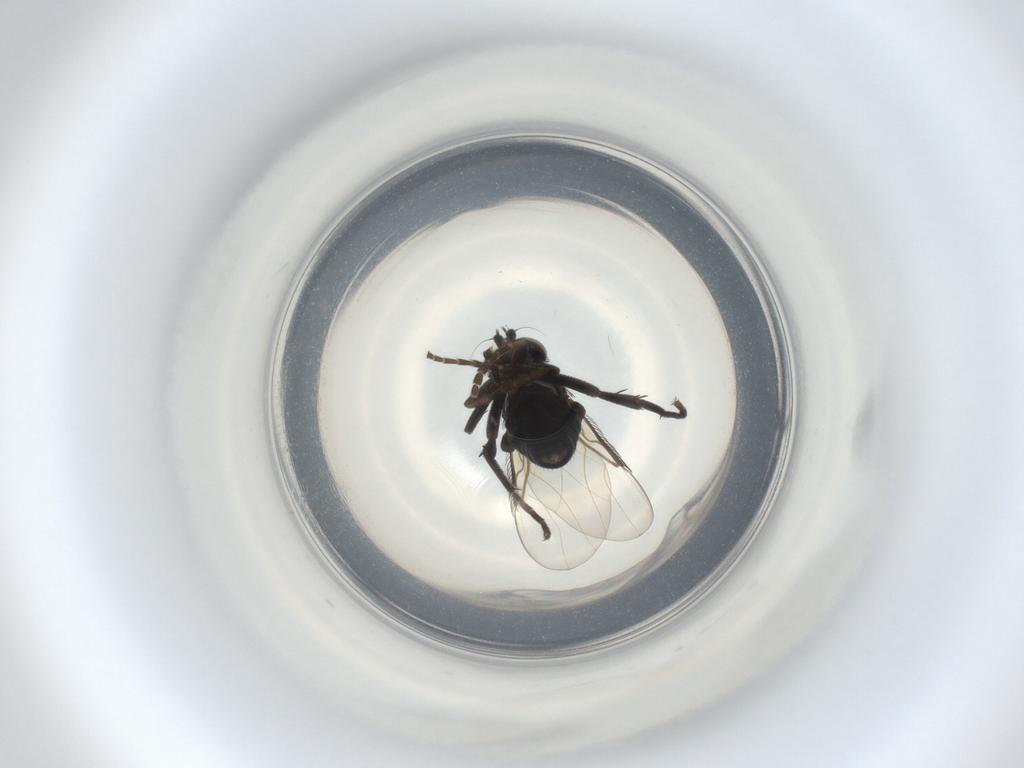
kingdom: Animalia
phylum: Arthropoda
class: Insecta
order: Diptera
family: Phoridae
